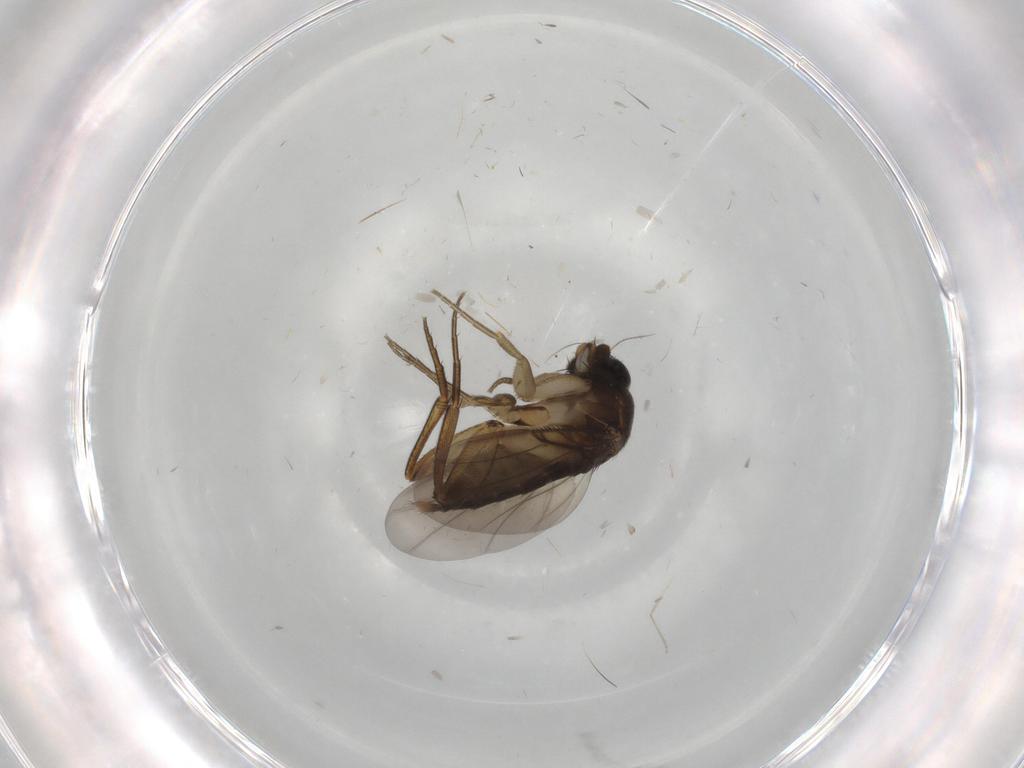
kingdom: Animalia
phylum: Arthropoda
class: Insecta
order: Diptera
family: Phoridae
